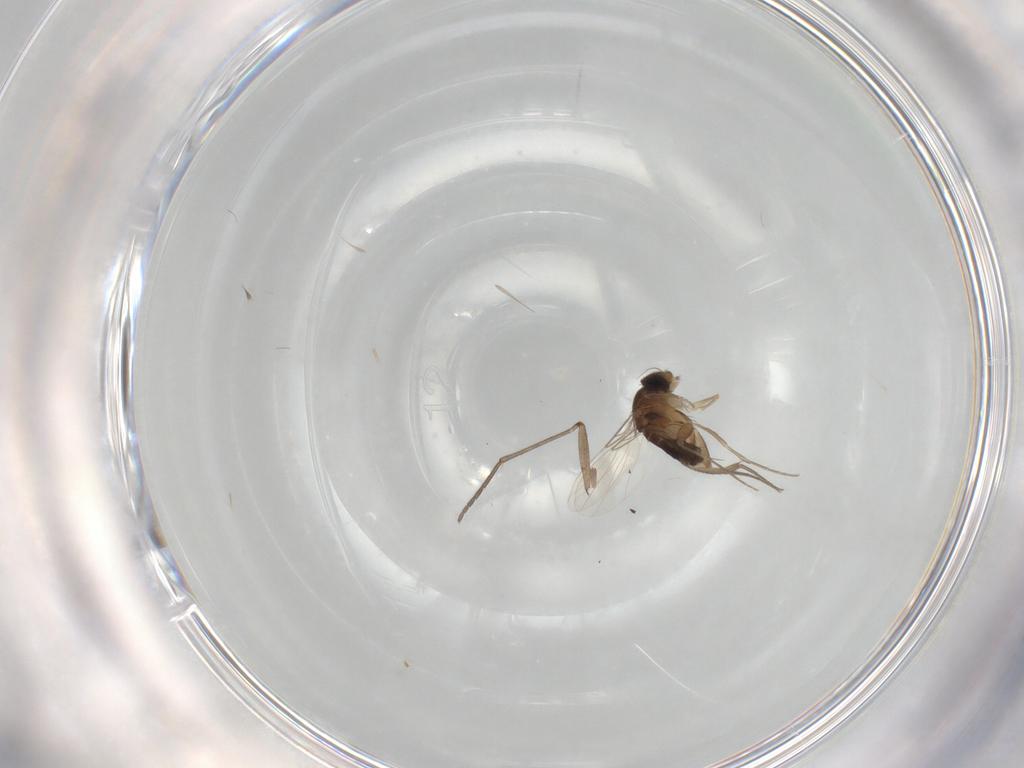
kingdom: Animalia
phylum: Arthropoda
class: Insecta
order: Diptera
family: Phoridae
